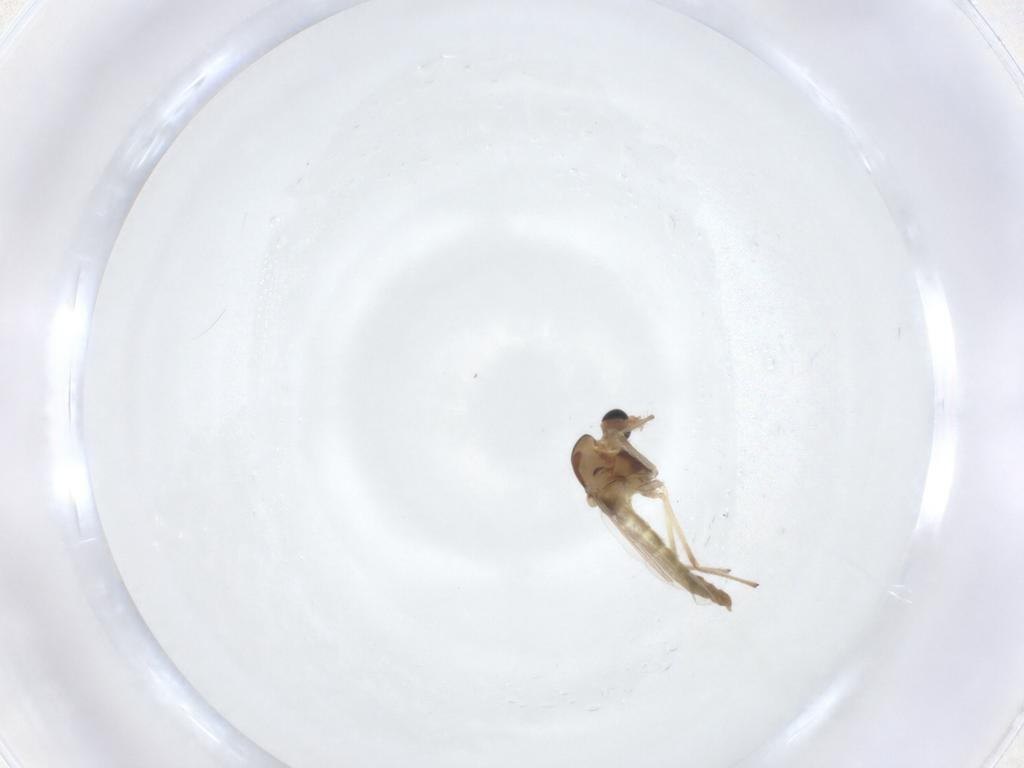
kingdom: Animalia
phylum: Arthropoda
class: Insecta
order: Diptera
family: Chironomidae
